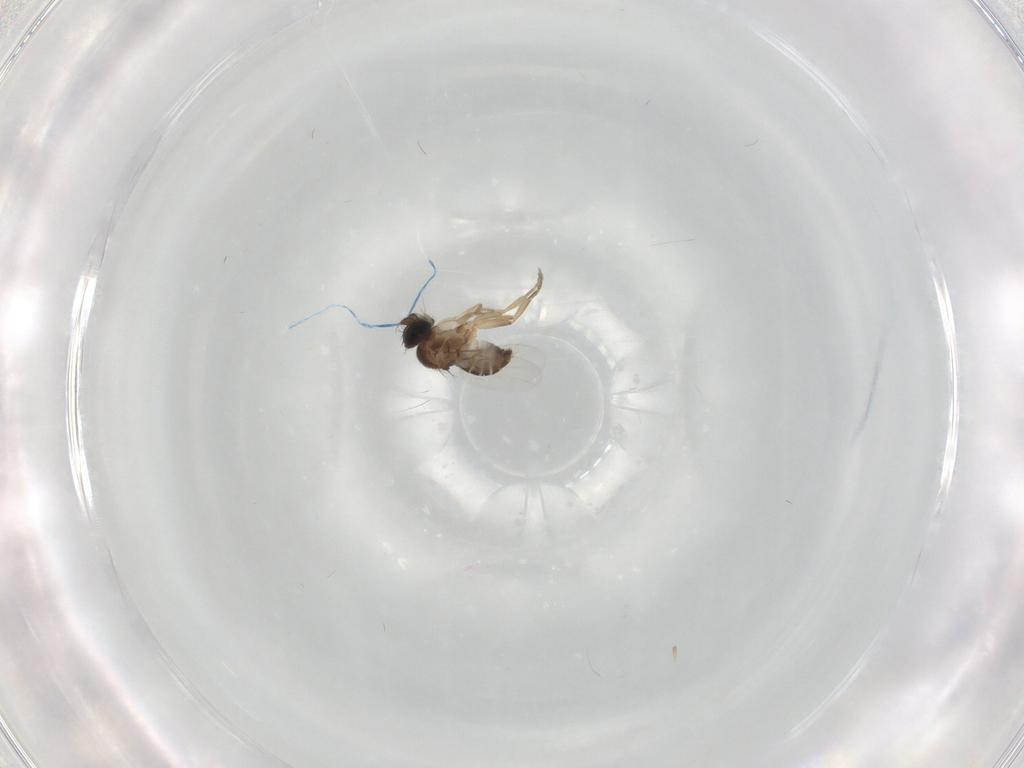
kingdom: Animalia
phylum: Arthropoda
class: Insecta
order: Diptera
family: Phoridae
